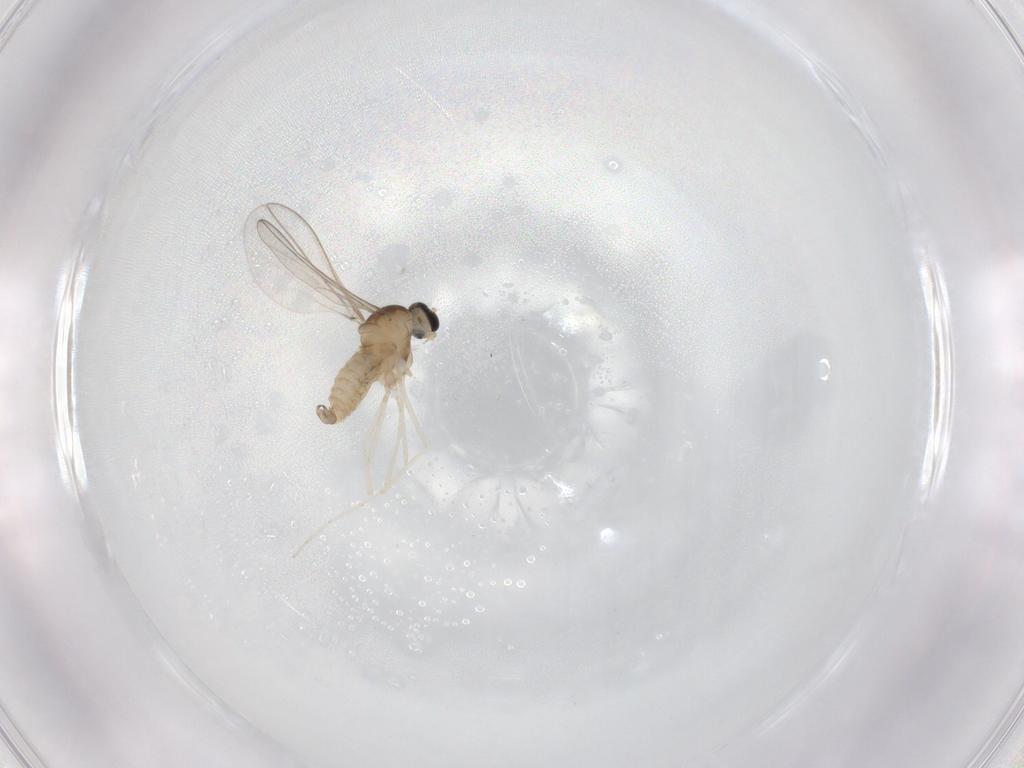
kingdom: Animalia
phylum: Arthropoda
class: Insecta
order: Diptera
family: Cecidomyiidae
